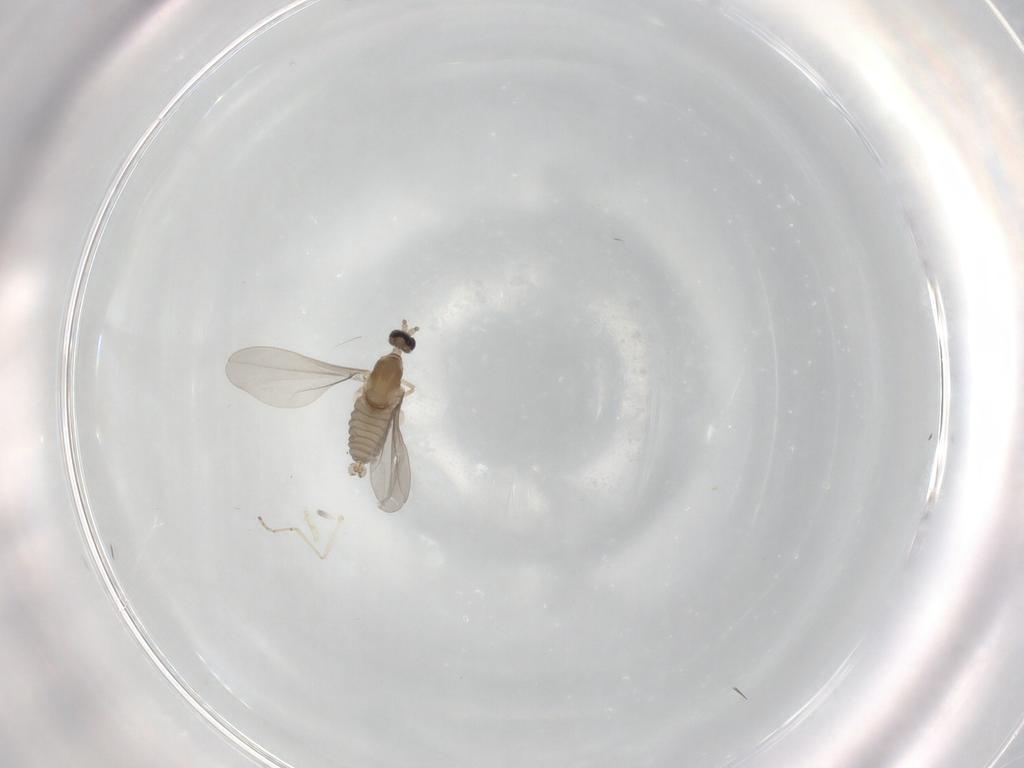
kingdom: Animalia
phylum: Arthropoda
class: Insecta
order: Diptera
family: Cecidomyiidae
